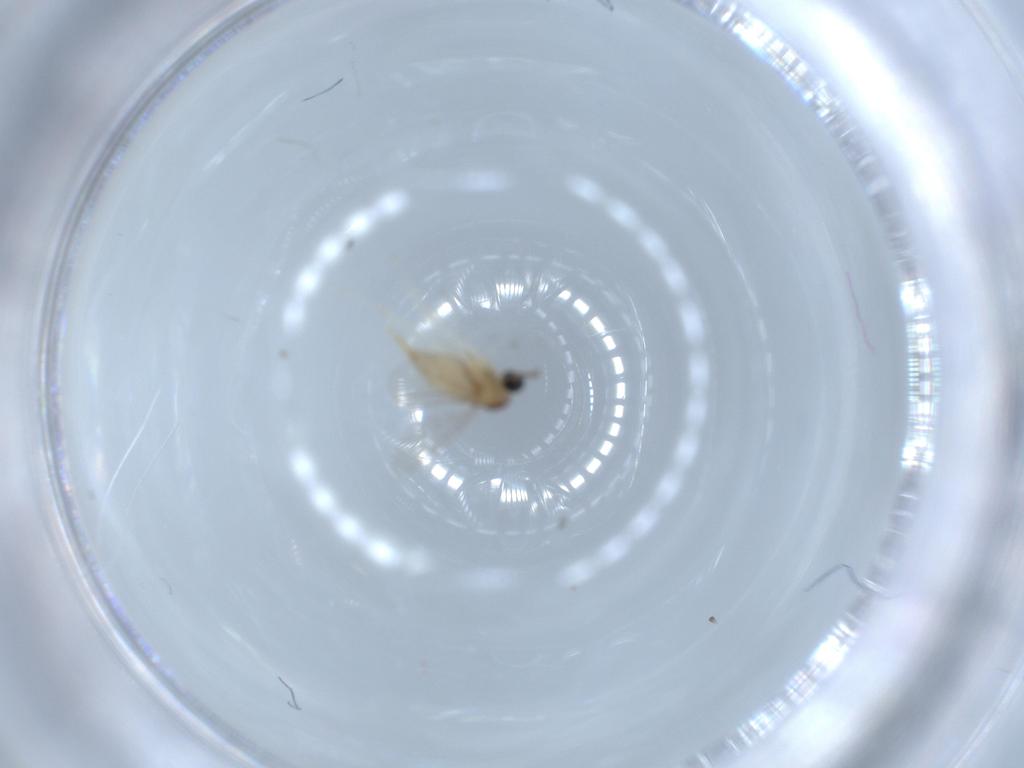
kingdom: Animalia
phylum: Arthropoda
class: Insecta
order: Diptera
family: Cecidomyiidae
